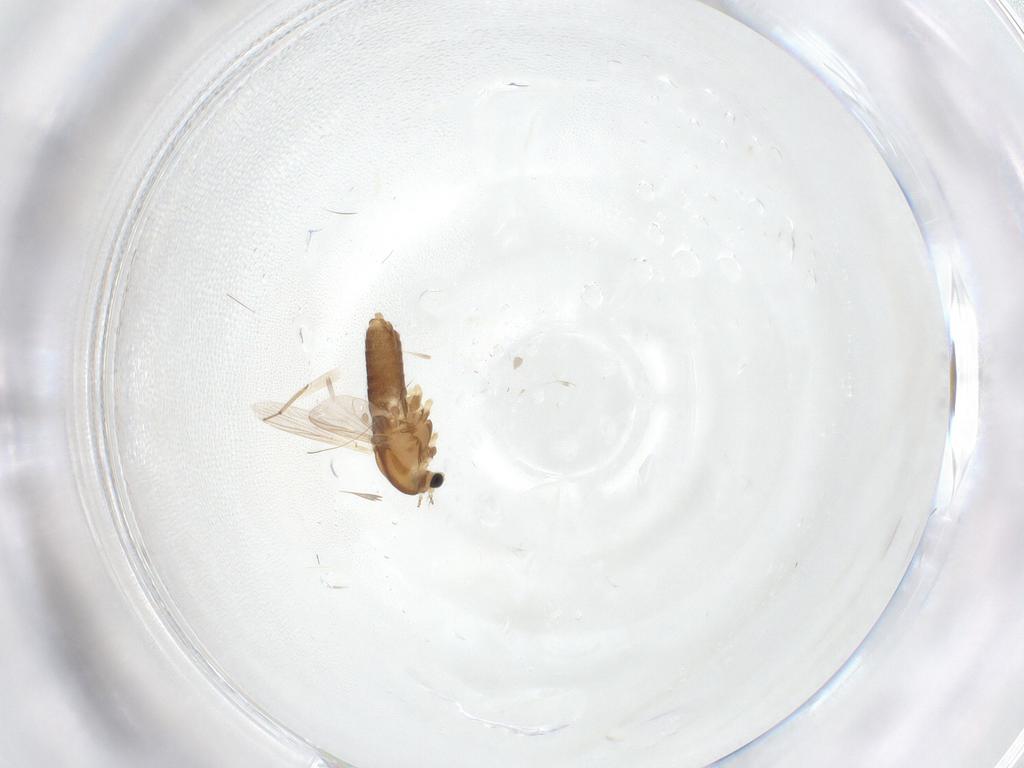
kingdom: Animalia
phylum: Arthropoda
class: Insecta
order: Diptera
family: Chironomidae
